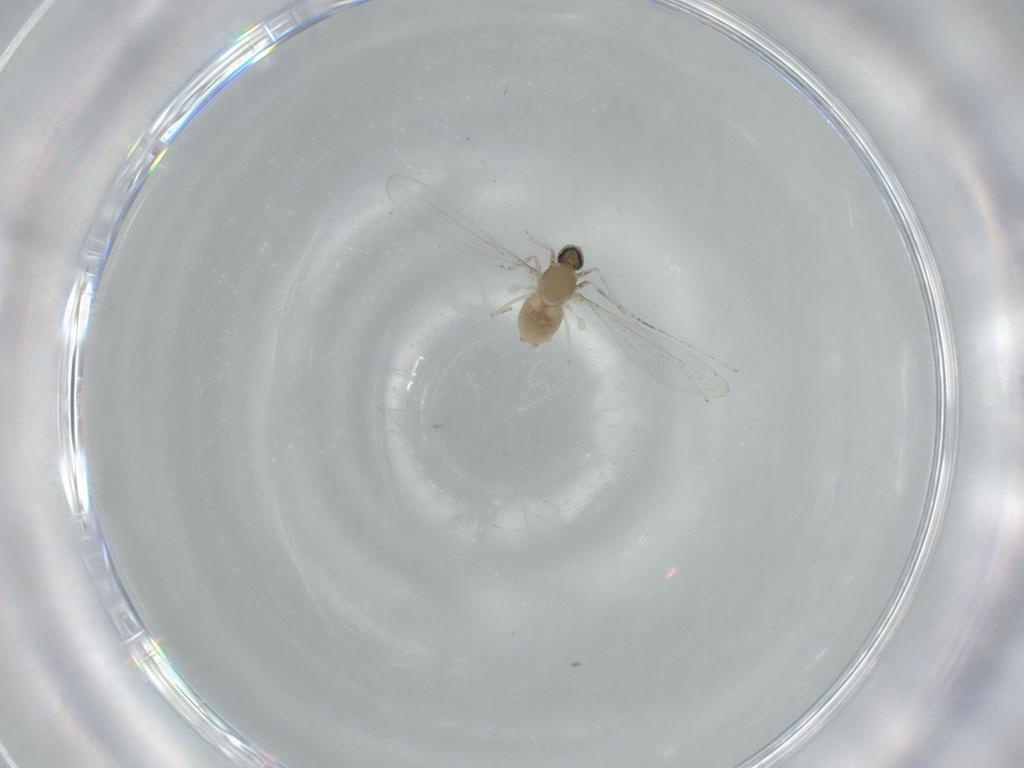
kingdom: Animalia
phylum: Arthropoda
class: Insecta
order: Diptera
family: Cecidomyiidae
